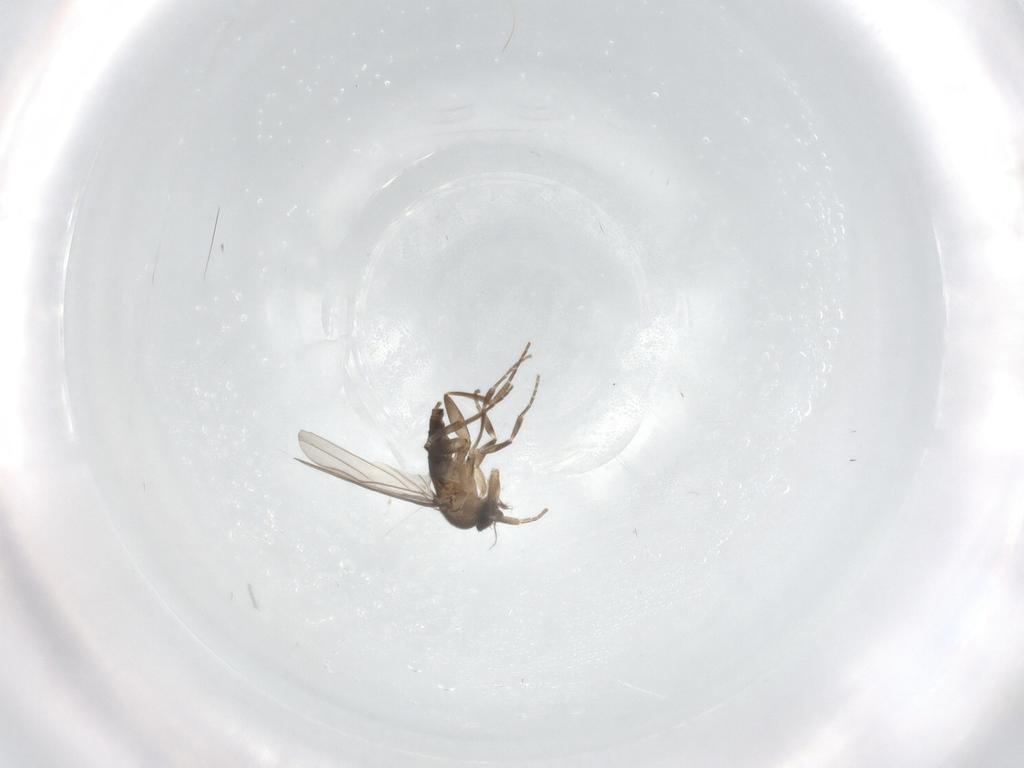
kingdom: Animalia
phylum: Arthropoda
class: Insecta
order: Diptera
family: Phoridae
